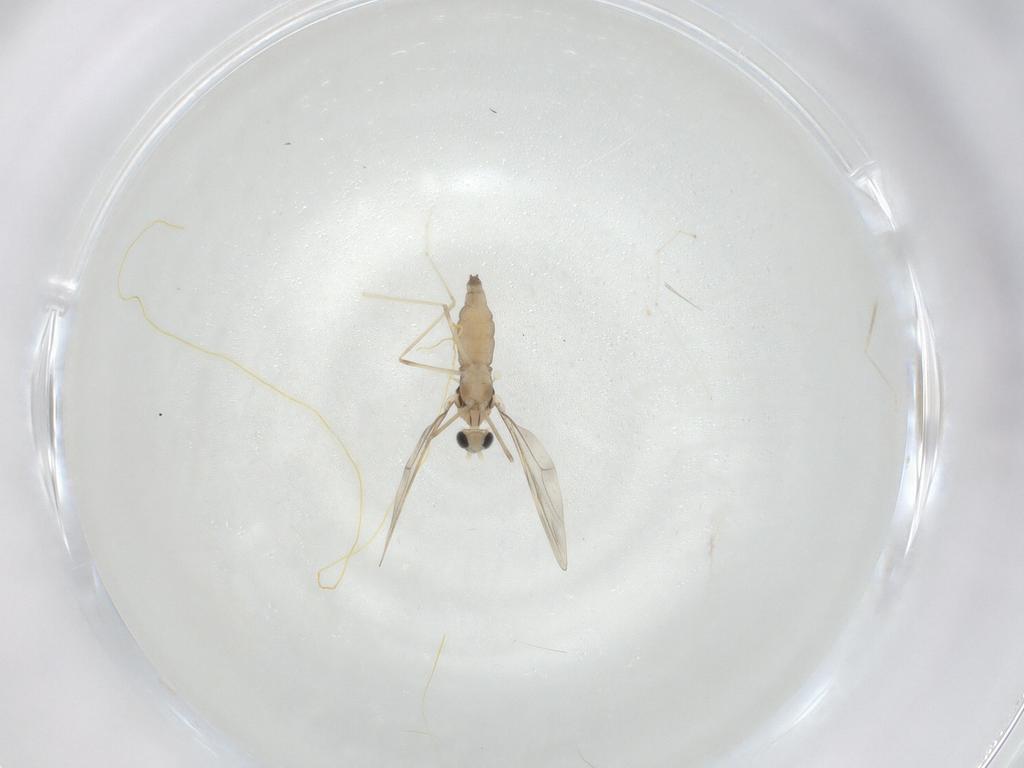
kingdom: Animalia
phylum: Arthropoda
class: Insecta
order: Diptera
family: Cecidomyiidae
